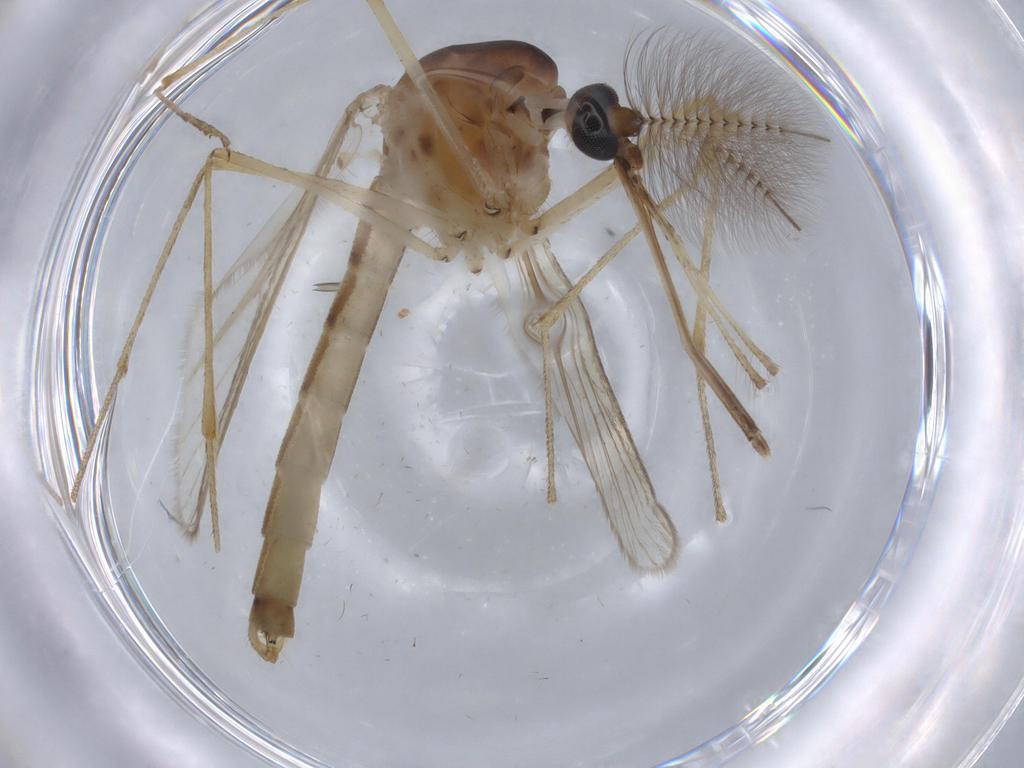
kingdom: Animalia
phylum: Arthropoda
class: Insecta
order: Diptera
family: Culicidae
